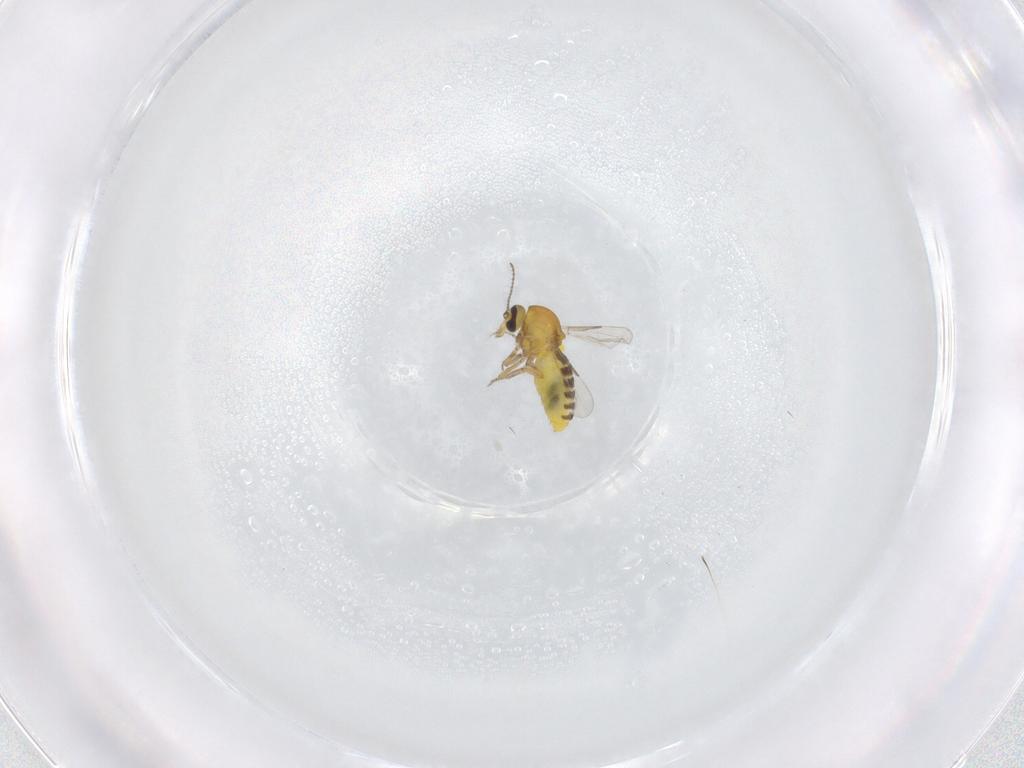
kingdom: Animalia
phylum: Arthropoda
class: Insecta
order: Diptera
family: Ceratopogonidae
